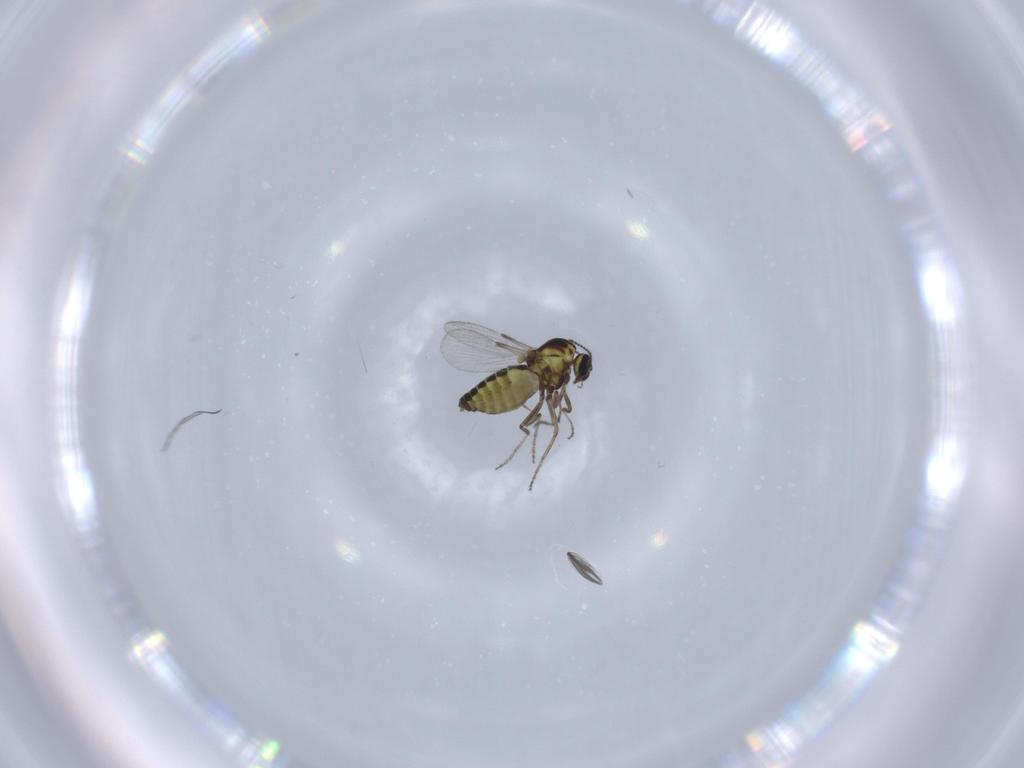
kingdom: Animalia
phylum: Arthropoda
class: Insecta
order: Diptera
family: Ceratopogonidae
